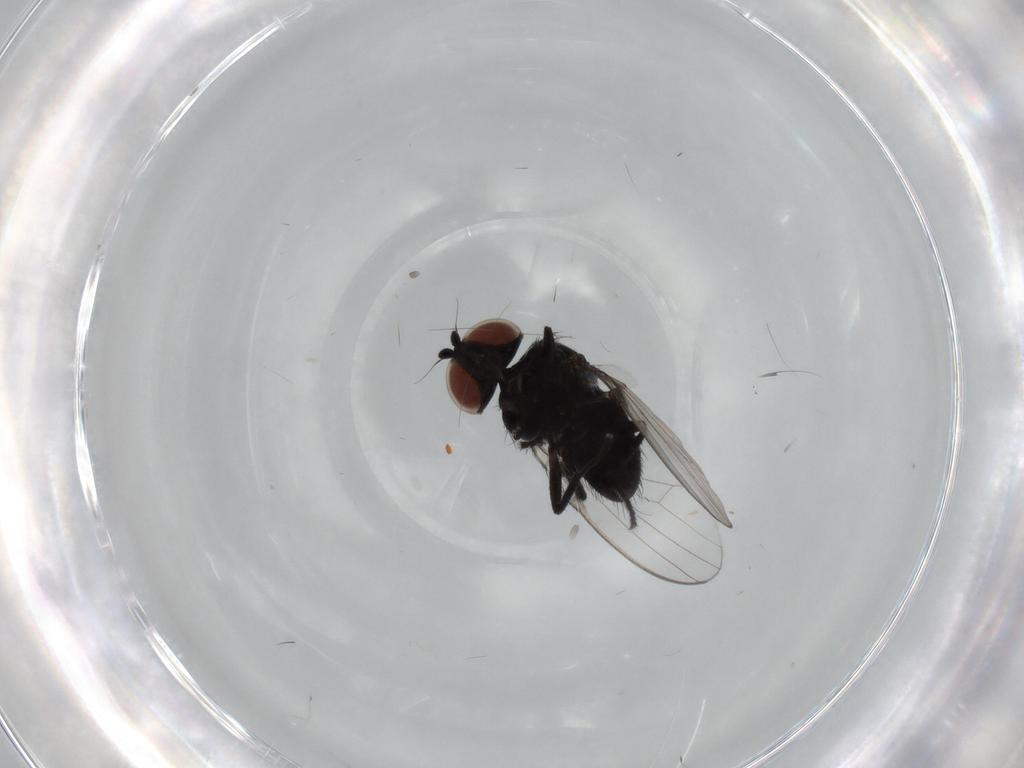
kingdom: Animalia
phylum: Arthropoda
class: Insecta
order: Diptera
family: Milichiidae
